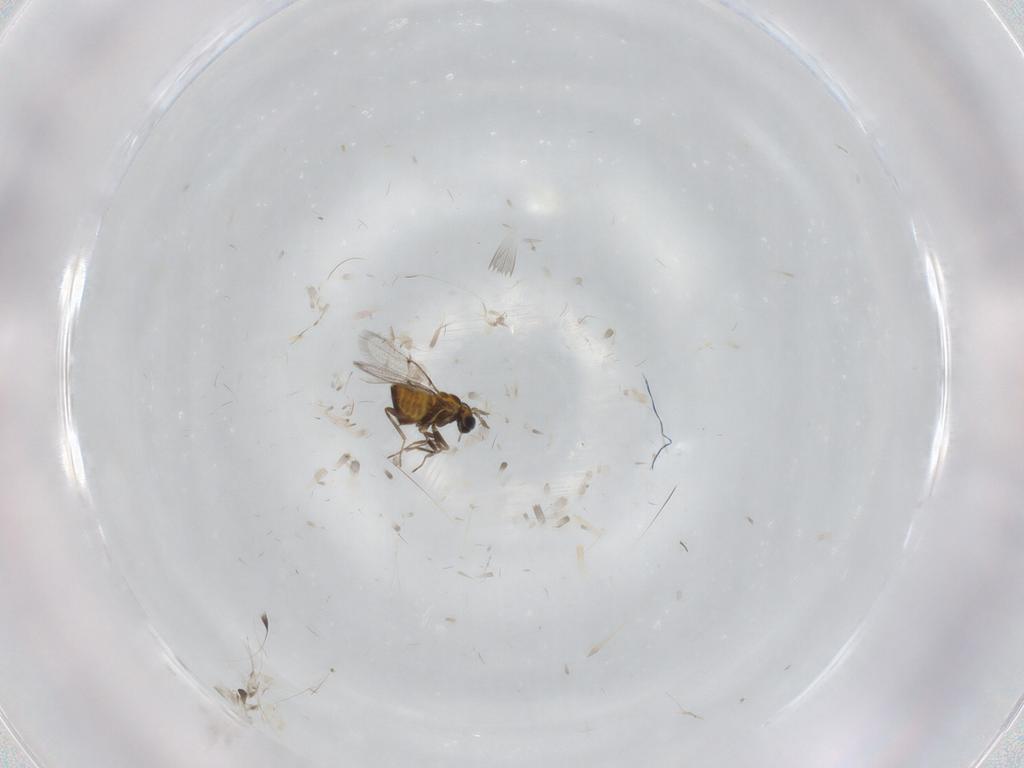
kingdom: Animalia
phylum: Arthropoda
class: Insecta
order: Hymenoptera
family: Trichogrammatidae
